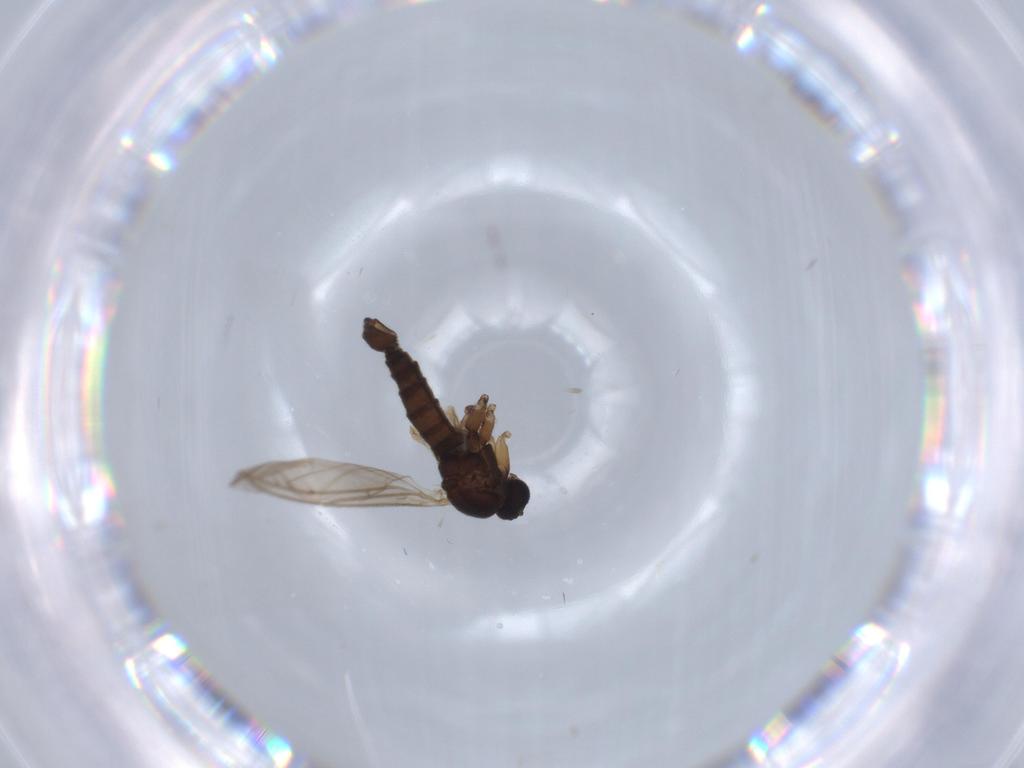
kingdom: Animalia
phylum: Arthropoda
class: Insecta
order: Diptera
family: Sciaridae
